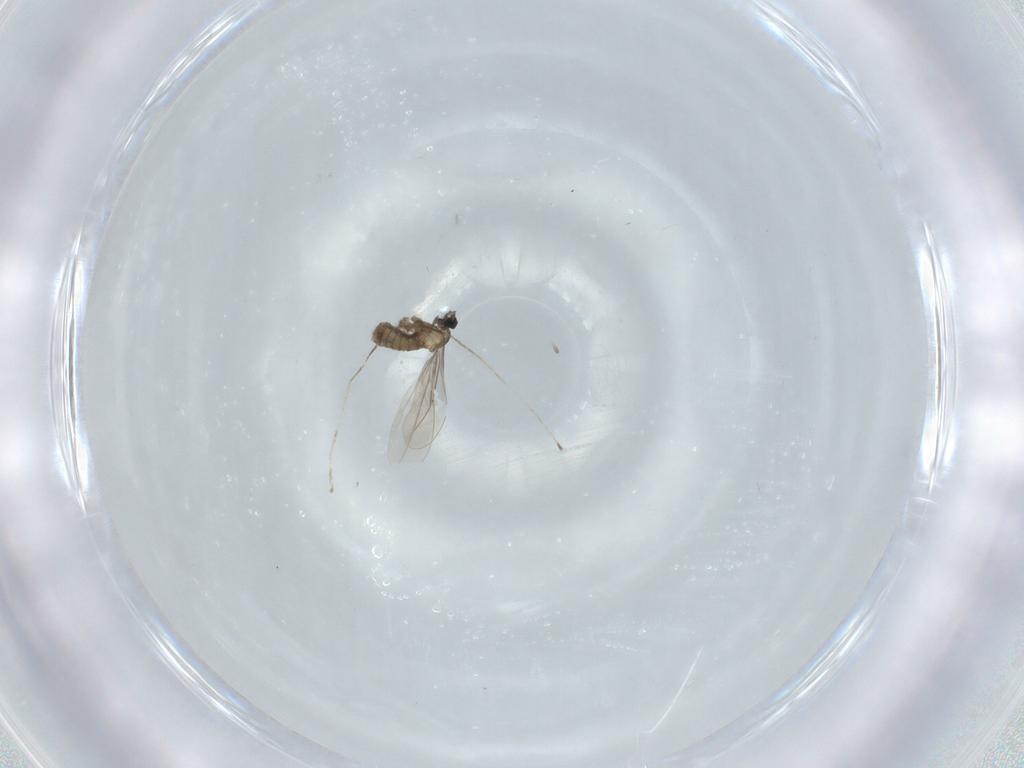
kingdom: Animalia
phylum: Arthropoda
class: Insecta
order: Diptera
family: Cecidomyiidae
